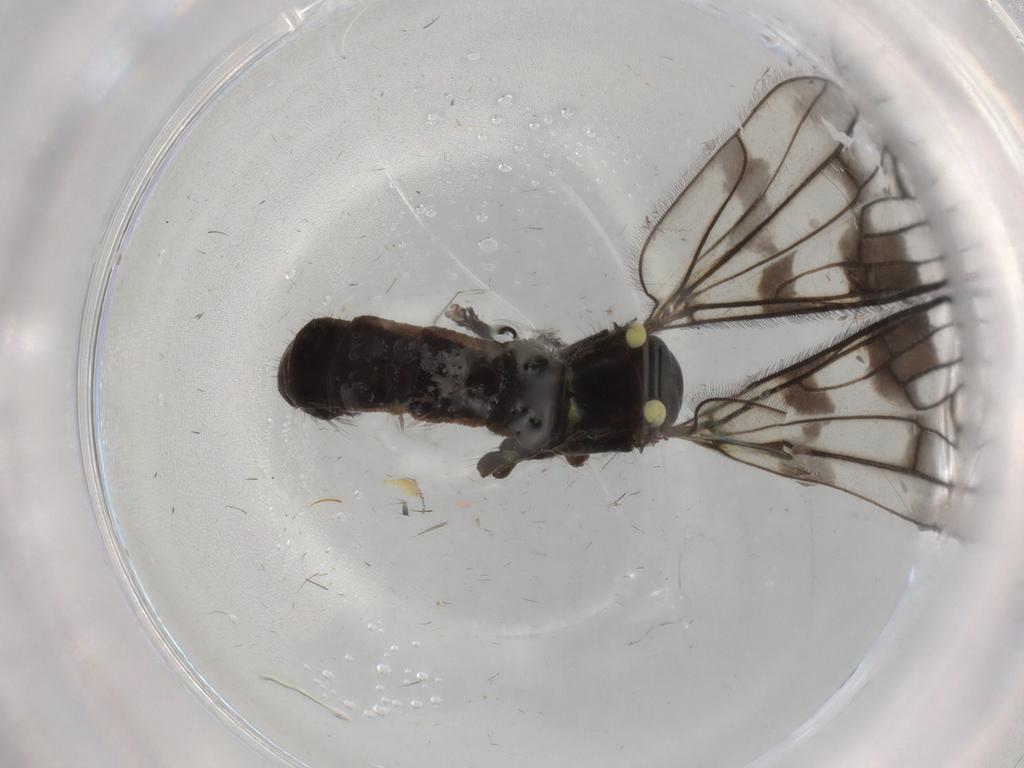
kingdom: Animalia
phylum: Arthropoda
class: Insecta
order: Diptera
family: Limoniidae
